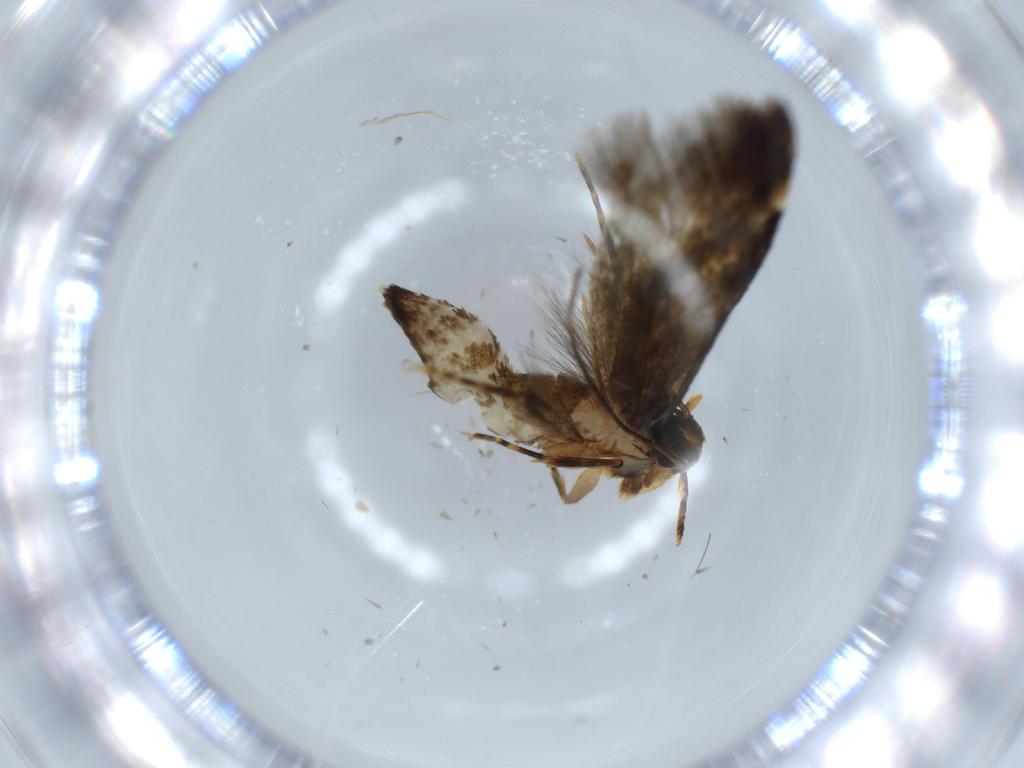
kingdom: Animalia
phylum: Arthropoda
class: Insecta
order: Lepidoptera
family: Tineidae
